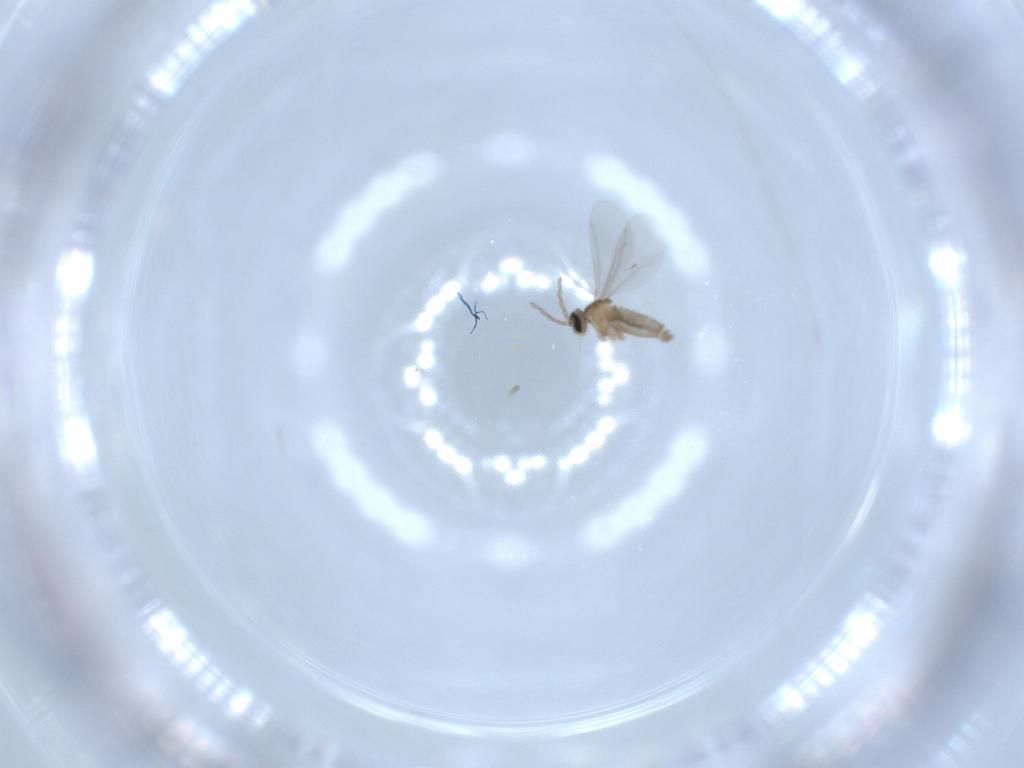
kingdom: Animalia
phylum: Arthropoda
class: Insecta
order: Diptera
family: Cecidomyiidae
